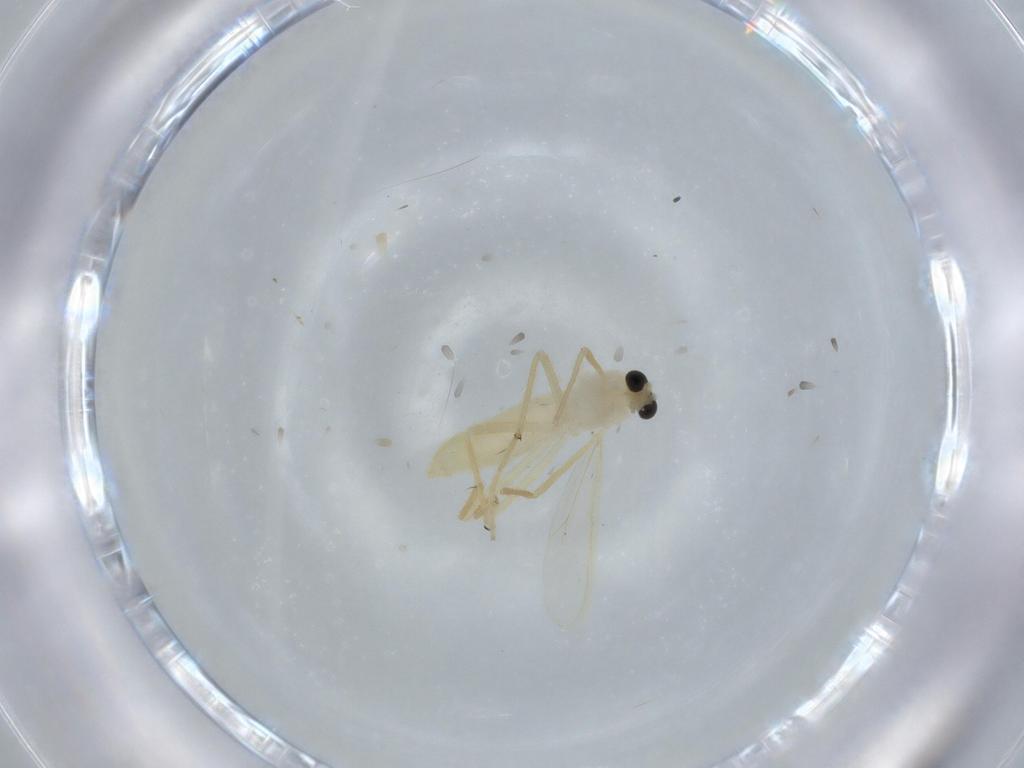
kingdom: Animalia
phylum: Arthropoda
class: Insecta
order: Diptera
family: Chironomidae
